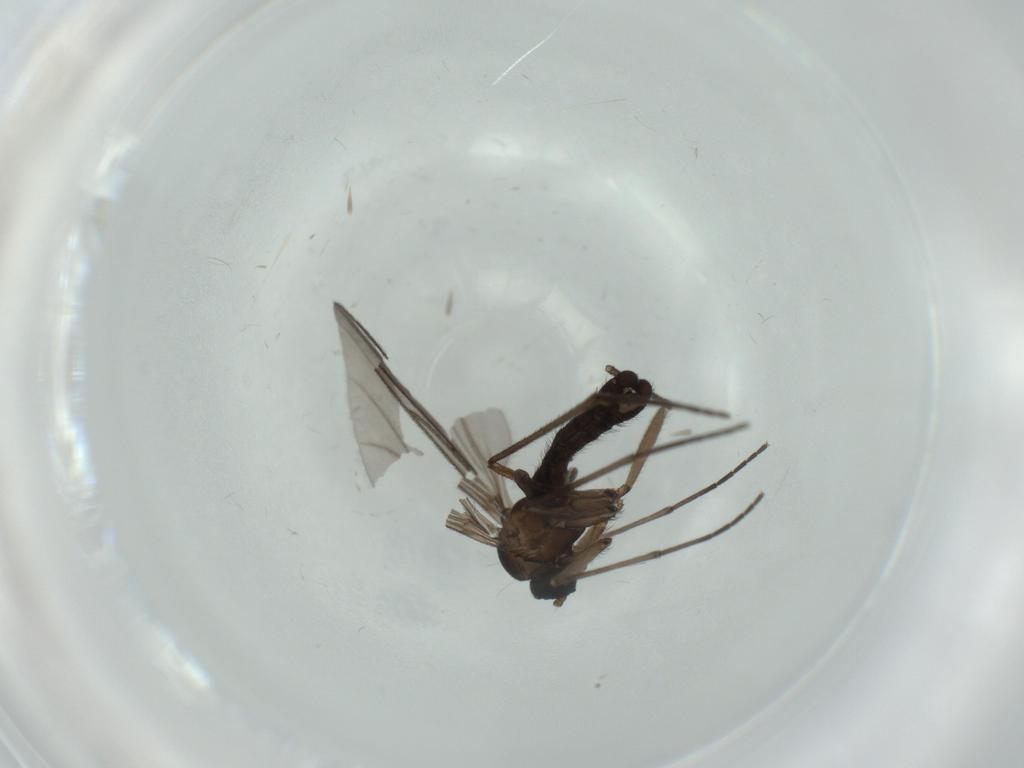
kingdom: Animalia
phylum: Arthropoda
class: Insecta
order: Diptera
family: Sciaridae
